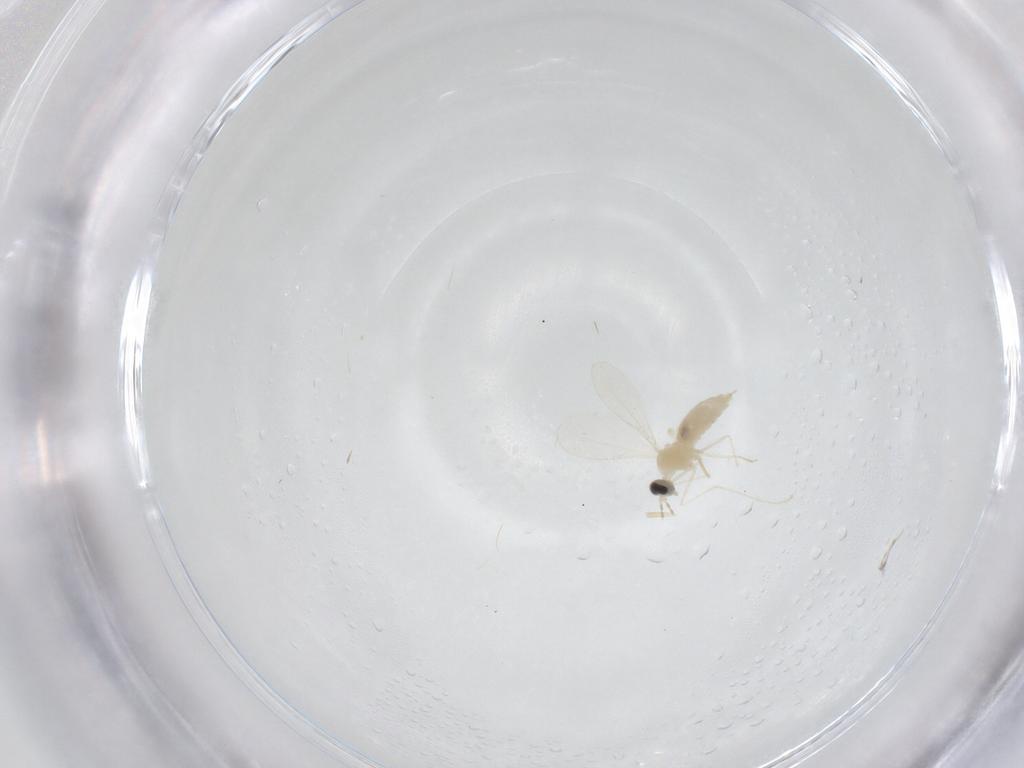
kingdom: Animalia
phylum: Arthropoda
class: Insecta
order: Diptera
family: Cecidomyiidae
